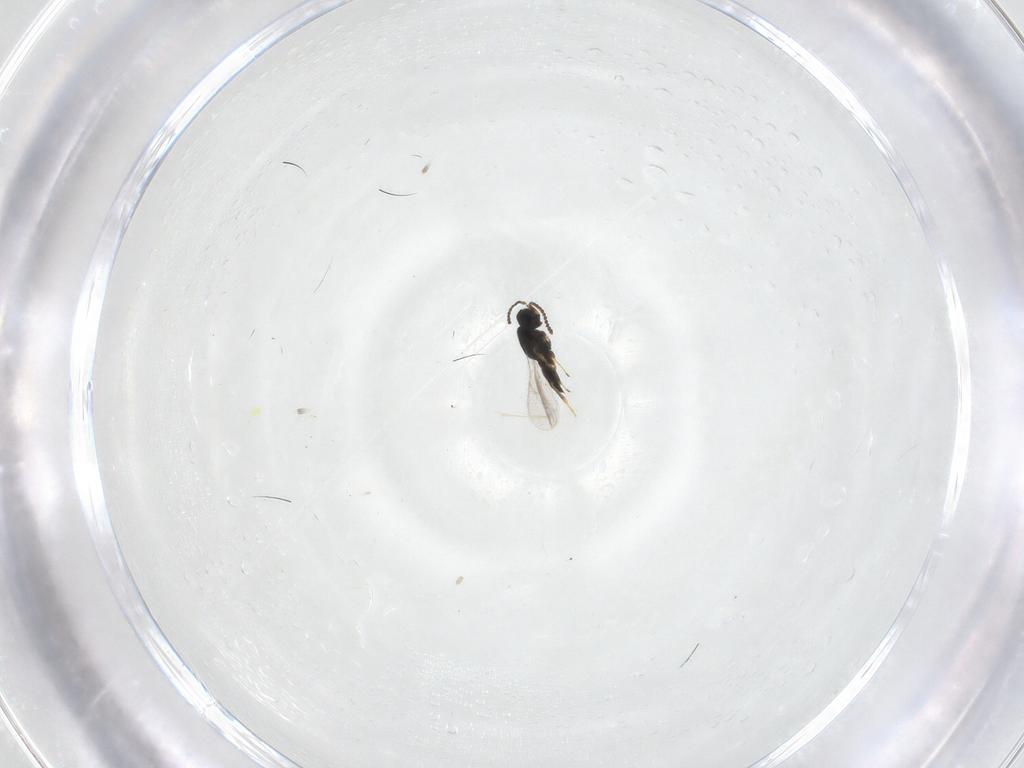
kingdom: Animalia
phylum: Arthropoda
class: Insecta
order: Hymenoptera
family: Scelionidae
